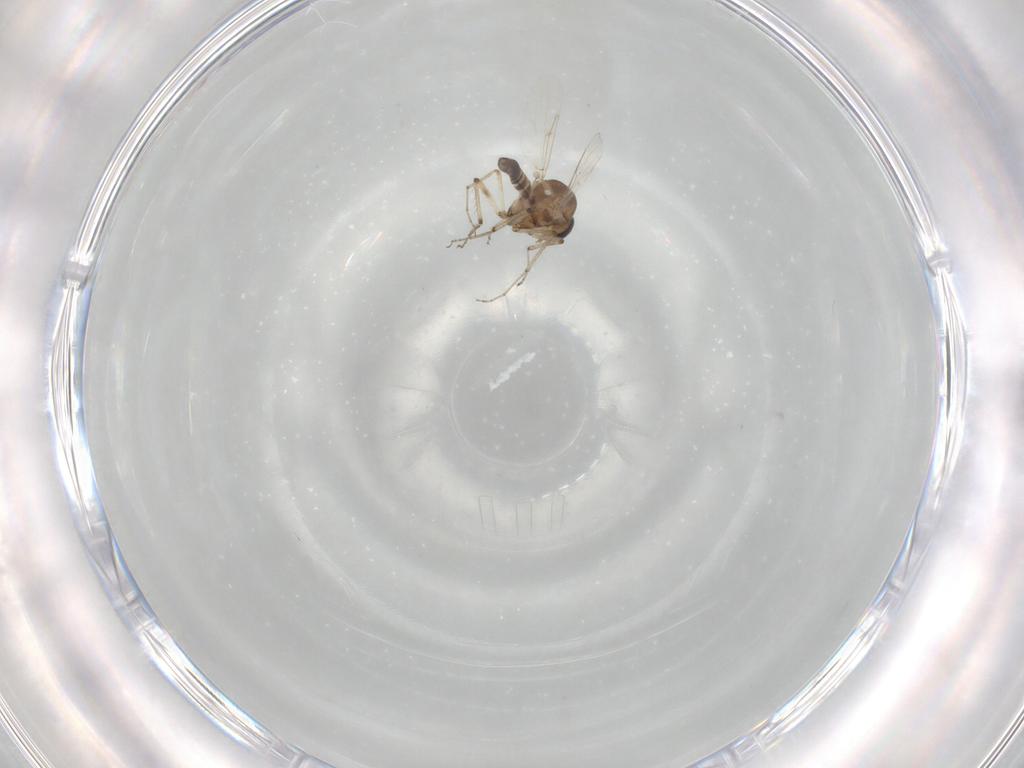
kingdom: Animalia
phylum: Arthropoda
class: Insecta
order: Diptera
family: Ceratopogonidae
